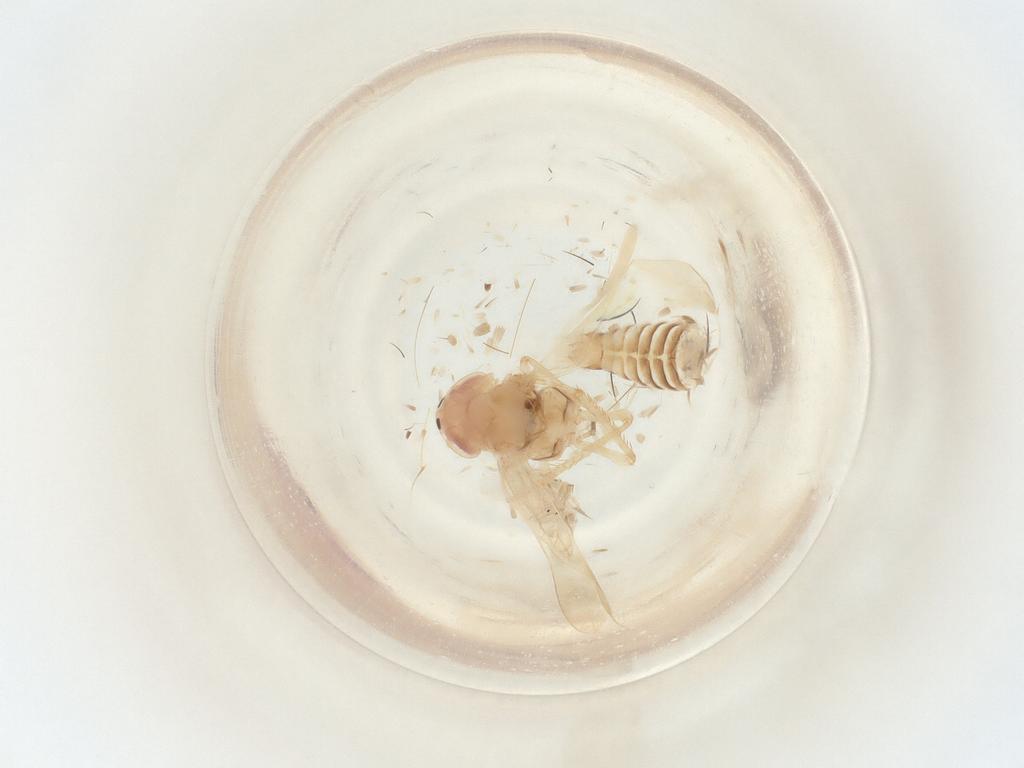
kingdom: Animalia
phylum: Arthropoda
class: Insecta
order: Hemiptera
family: Cicadellidae
